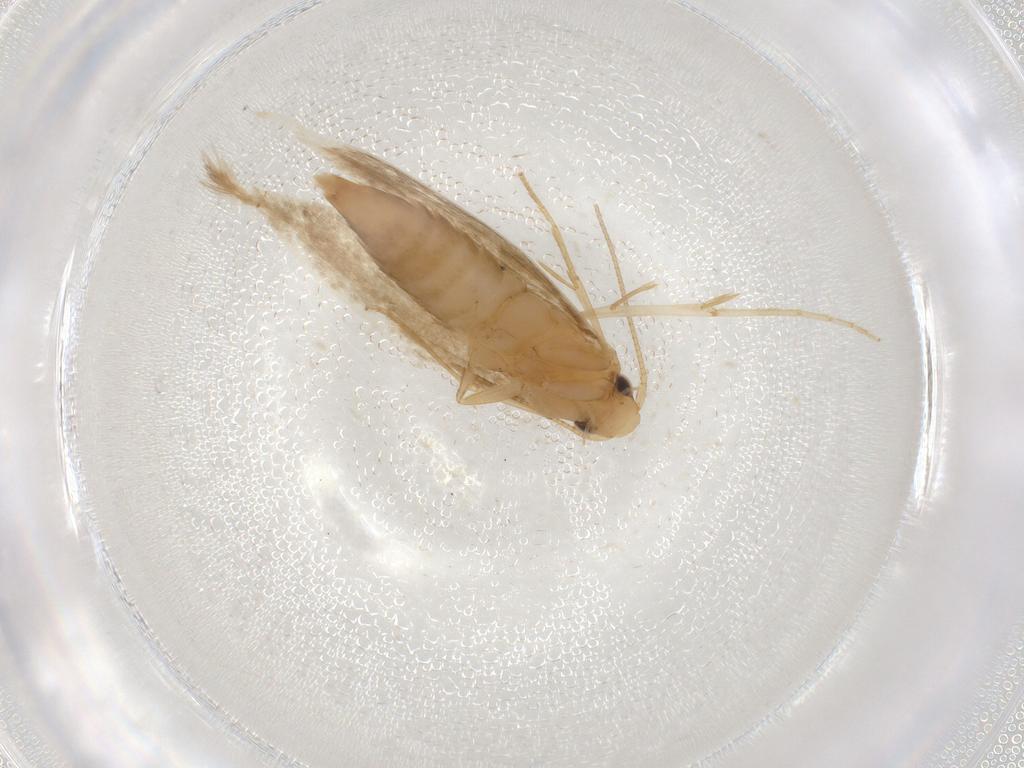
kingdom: Animalia
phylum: Arthropoda
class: Insecta
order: Lepidoptera
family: Tineidae
